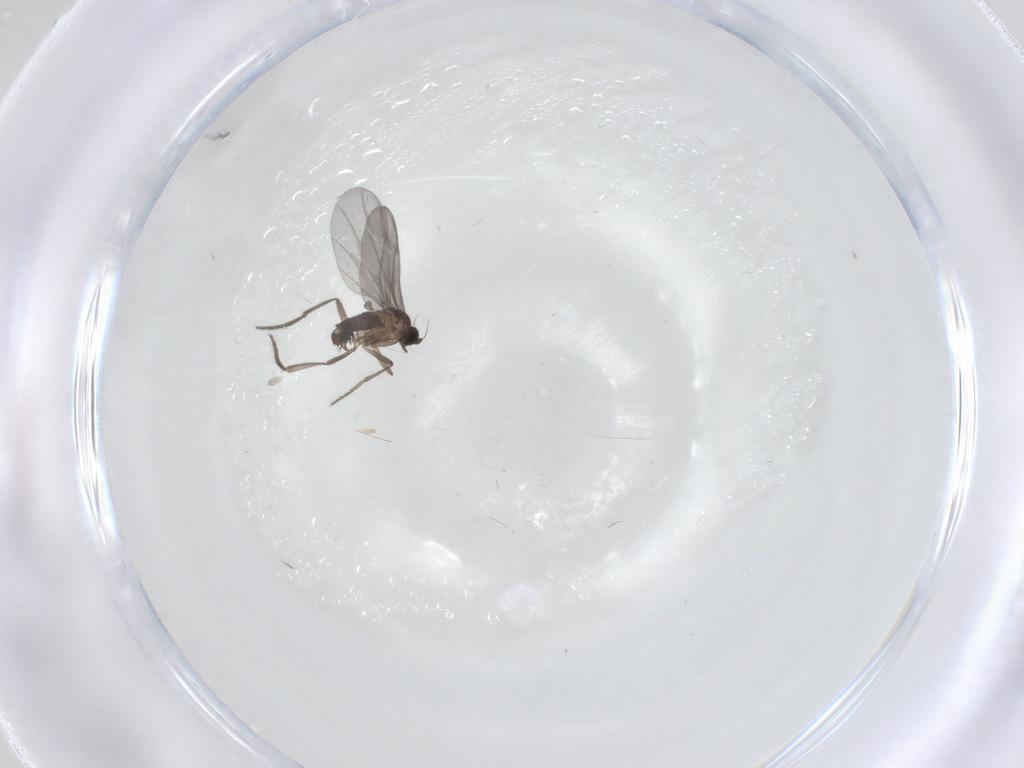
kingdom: Animalia
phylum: Arthropoda
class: Insecta
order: Diptera
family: Phoridae
